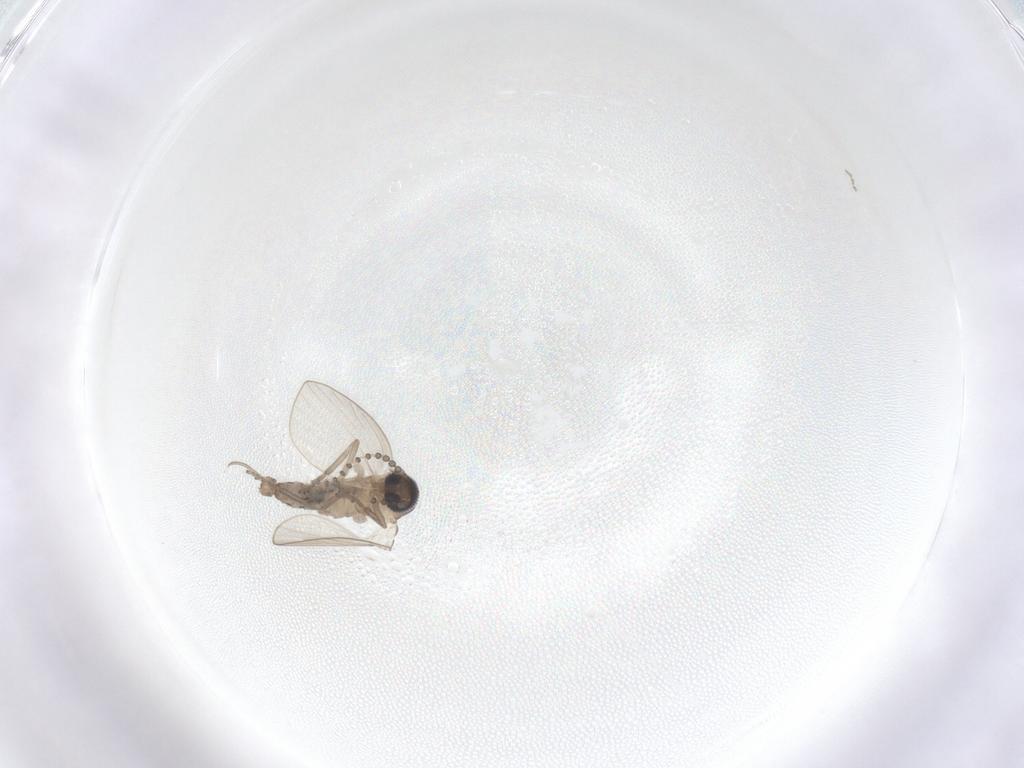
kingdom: Animalia
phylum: Arthropoda
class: Insecta
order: Diptera
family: Psychodidae
